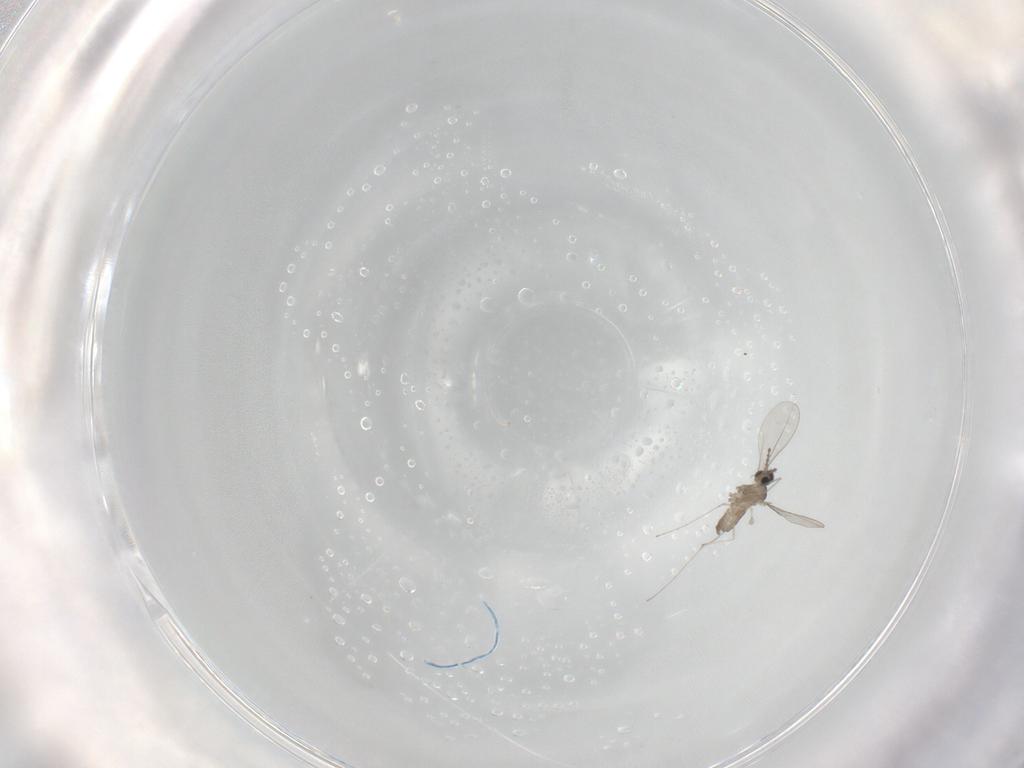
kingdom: Animalia
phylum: Arthropoda
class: Insecta
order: Diptera
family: Cecidomyiidae
